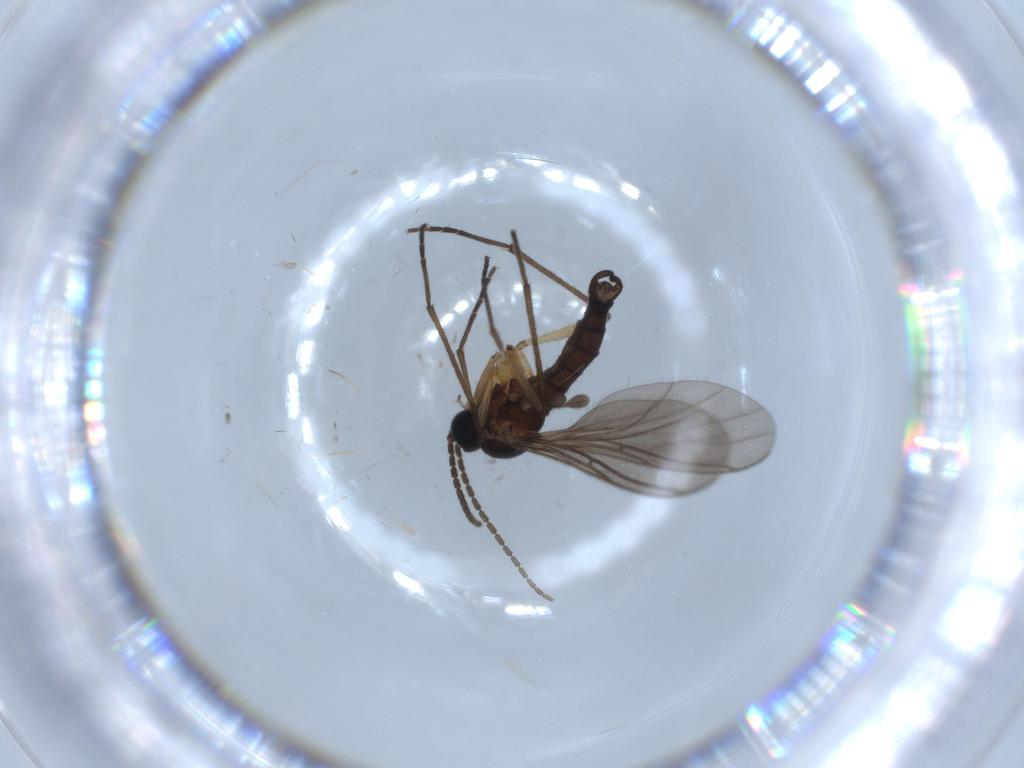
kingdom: Animalia
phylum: Arthropoda
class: Insecta
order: Diptera
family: Sciaridae
